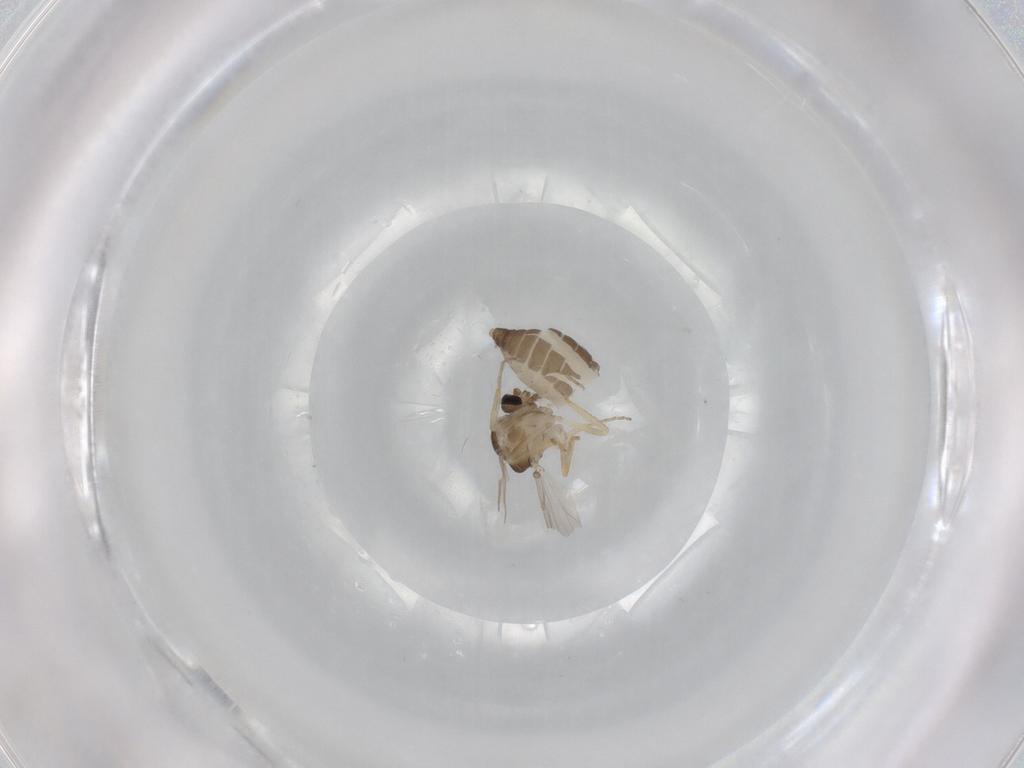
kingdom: Animalia
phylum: Arthropoda
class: Insecta
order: Diptera
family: Ceratopogonidae
